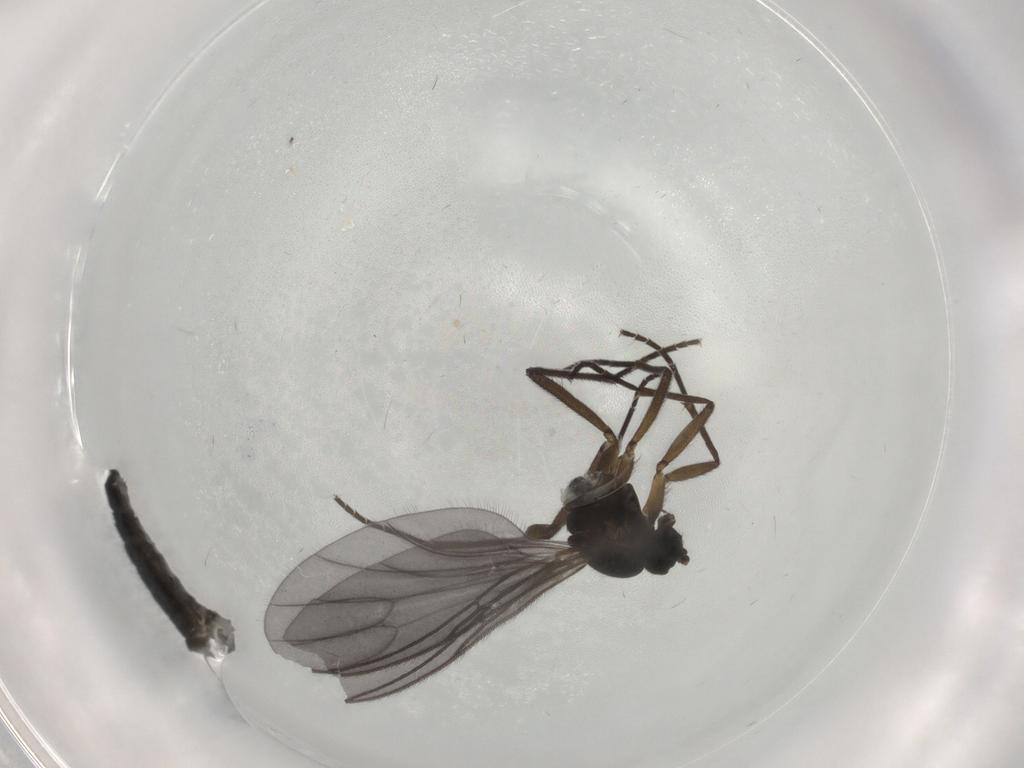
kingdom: Animalia
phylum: Arthropoda
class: Insecta
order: Diptera
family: Sciaridae
